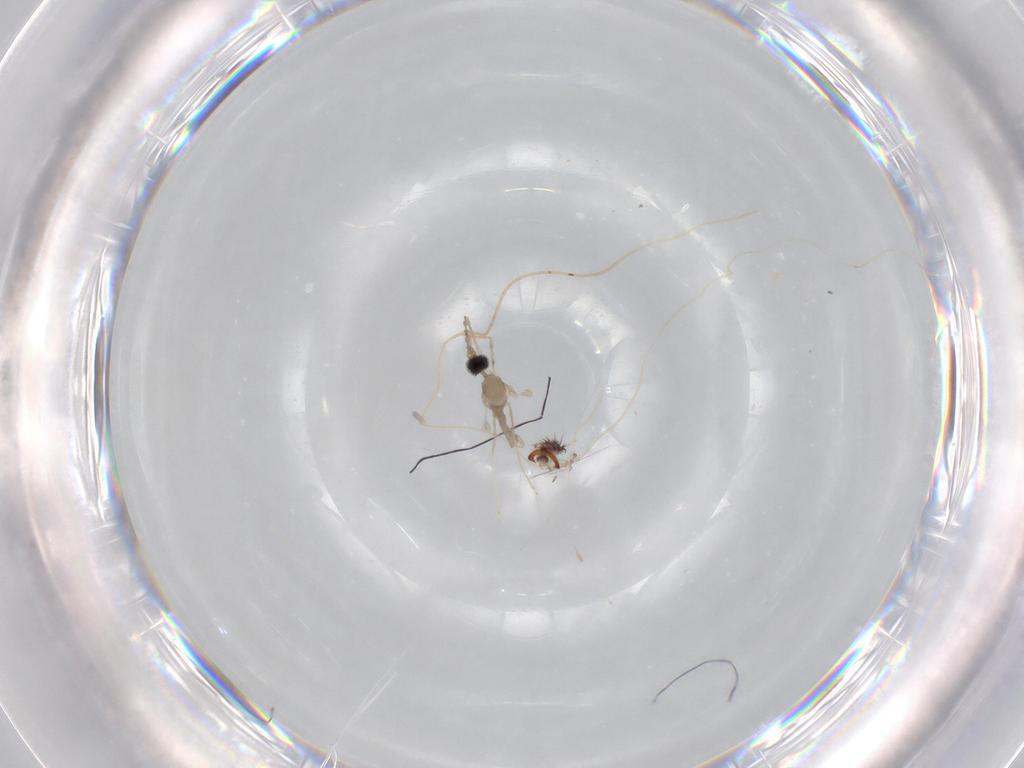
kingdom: Animalia
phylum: Arthropoda
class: Insecta
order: Diptera
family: Cecidomyiidae
